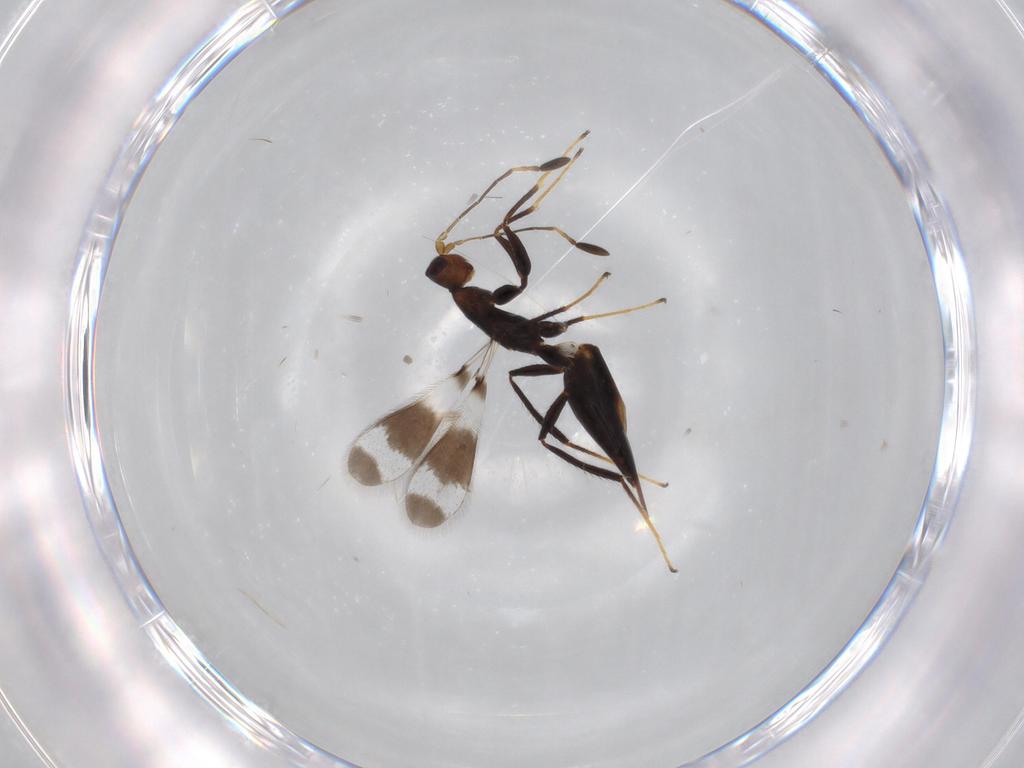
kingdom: Animalia
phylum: Arthropoda
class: Insecta
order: Hymenoptera
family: Mymaridae
